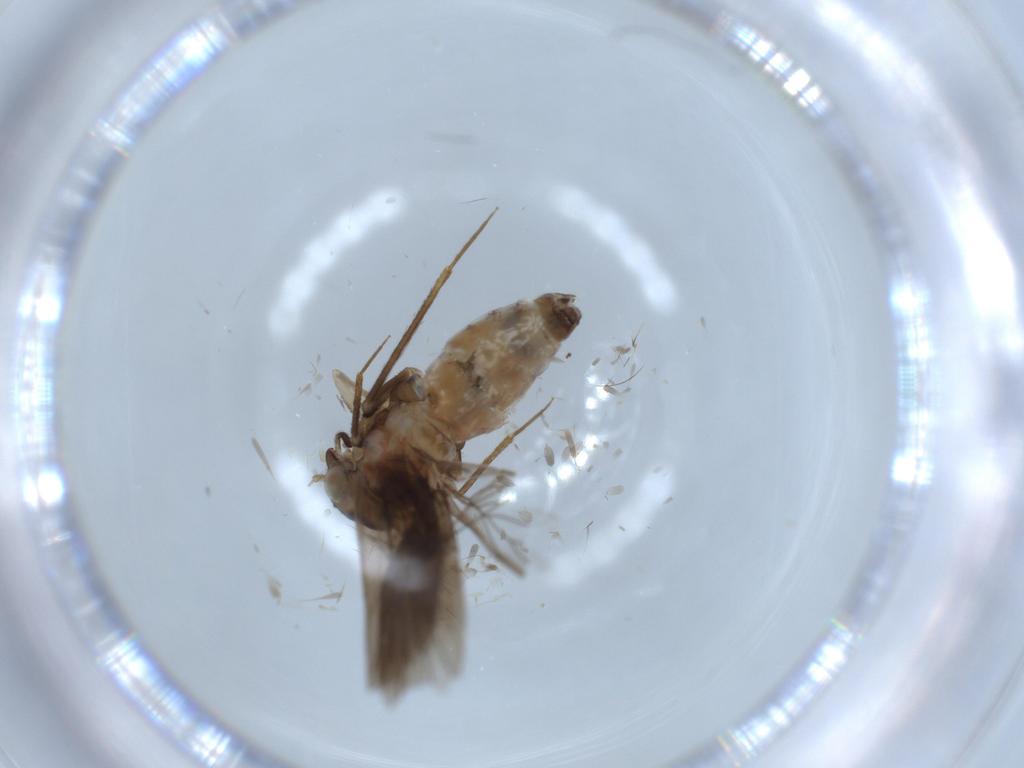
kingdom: Animalia
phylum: Arthropoda
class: Insecta
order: Psocodea
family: Lepidopsocidae
